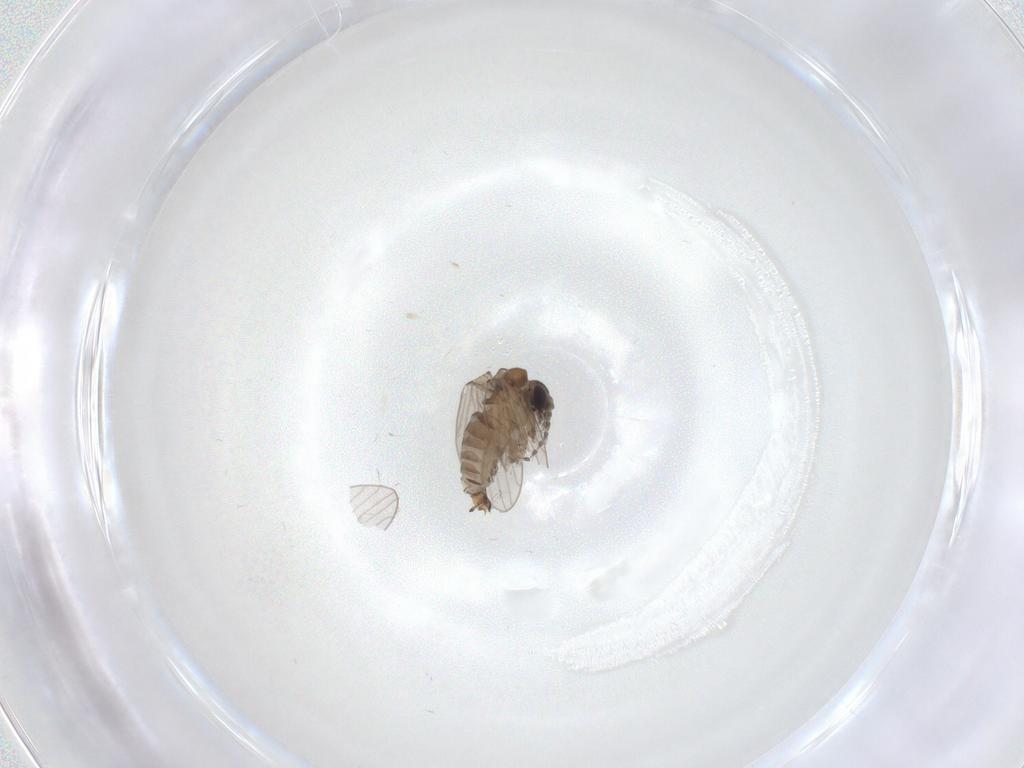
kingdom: Animalia
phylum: Arthropoda
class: Insecta
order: Diptera
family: Psychodidae
